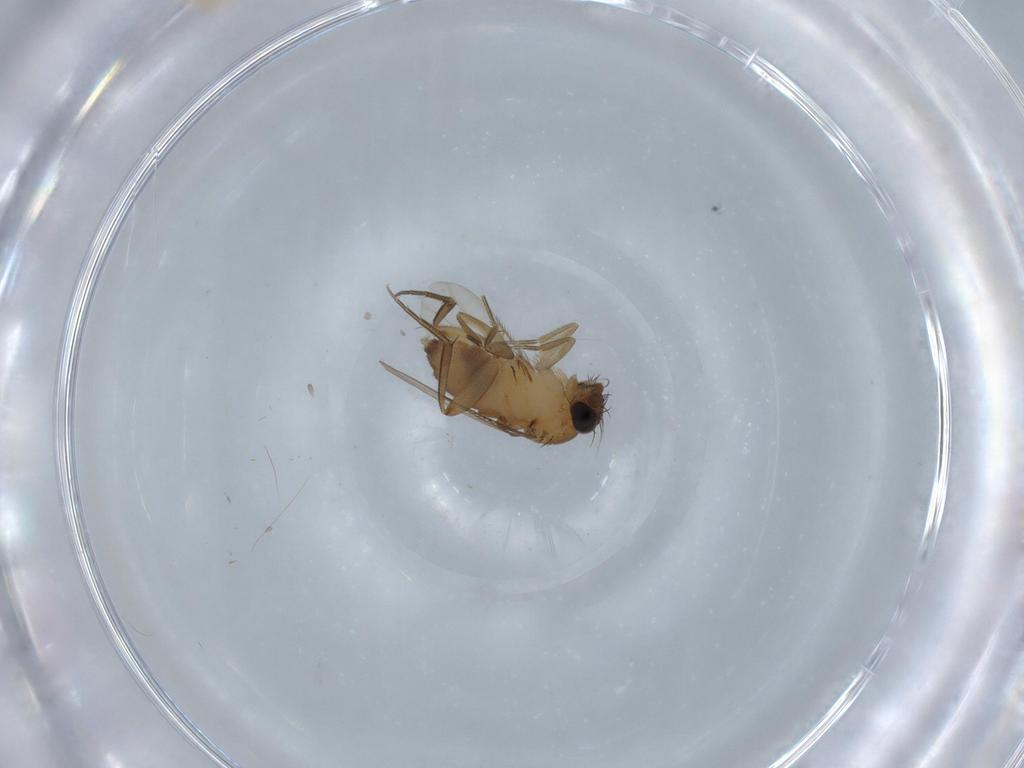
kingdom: Animalia
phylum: Arthropoda
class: Insecta
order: Diptera
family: Phoridae
